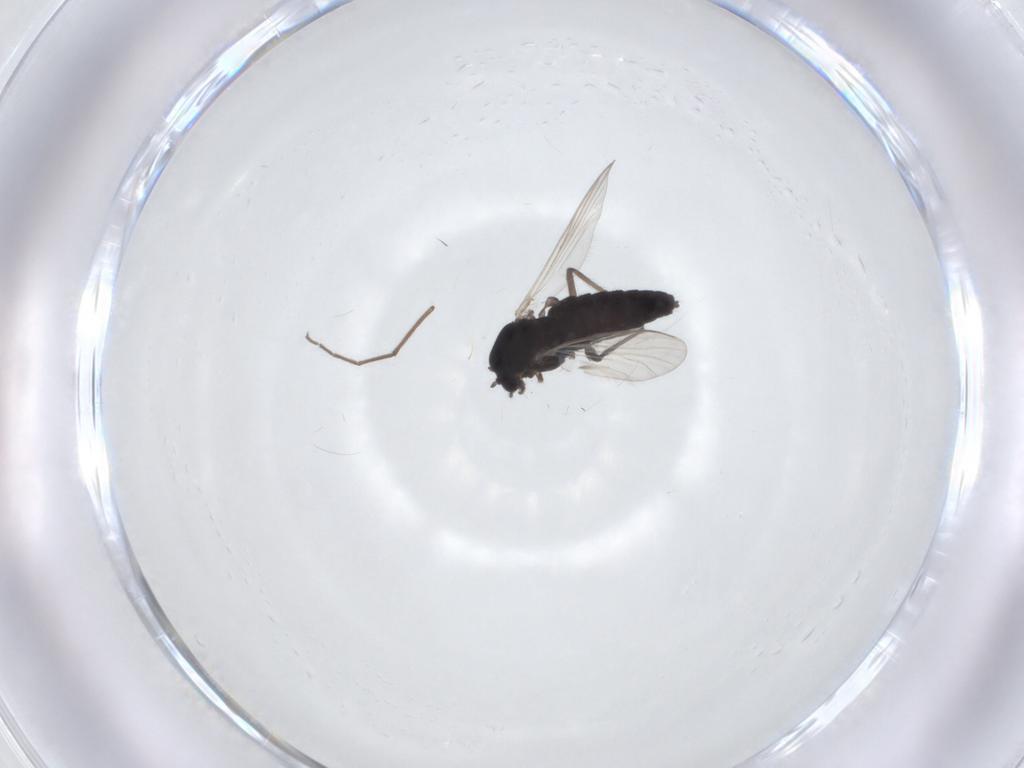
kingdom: Animalia
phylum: Arthropoda
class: Insecta
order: Diptera
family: Chironomidae
